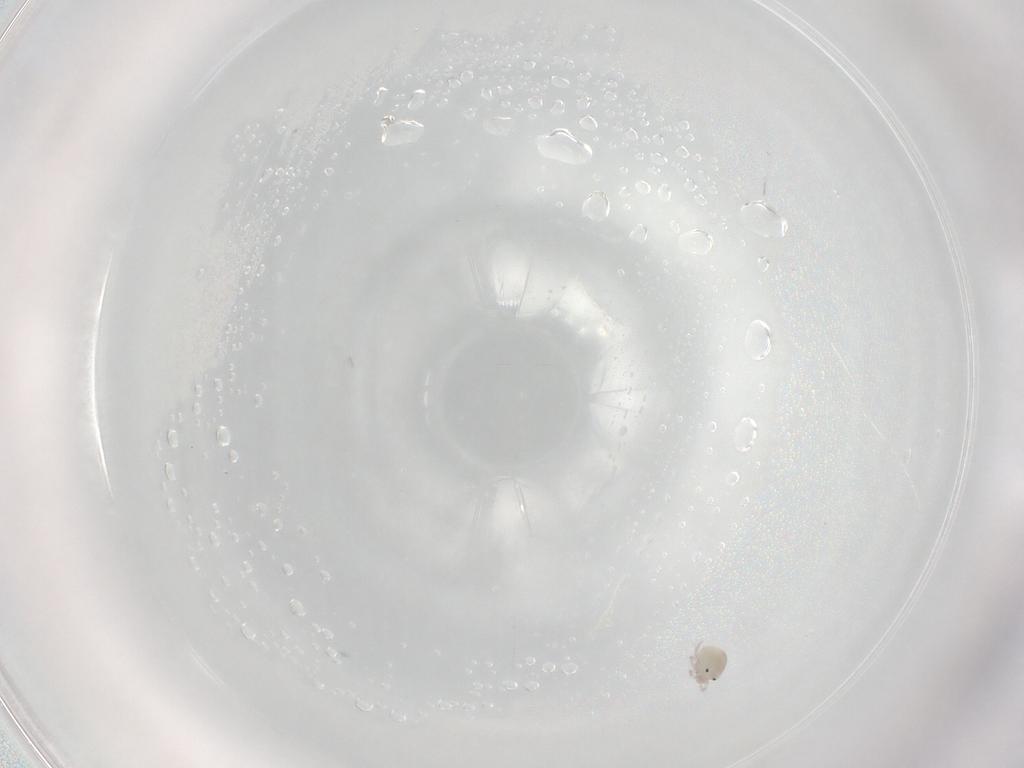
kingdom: Animalia
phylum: Arthropoda
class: Arachnida
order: Trombidiformes
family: Lebertiidae
